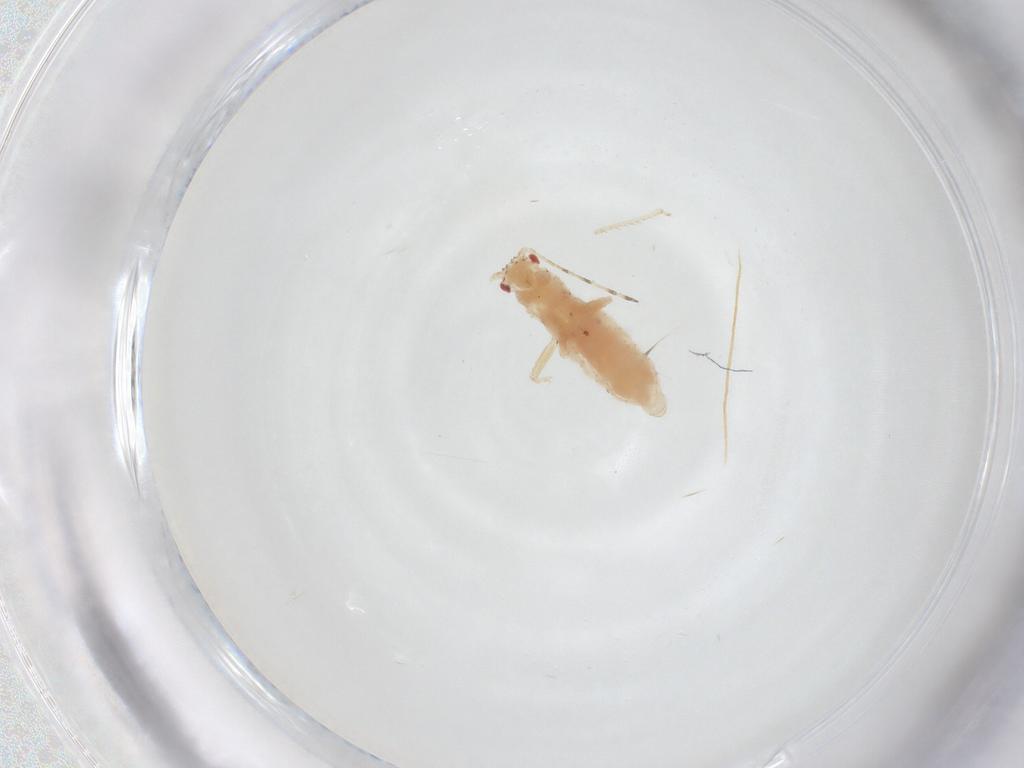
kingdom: Animalia
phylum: Arthropoda
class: Insecta
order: Hemiptera
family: Aphididae
